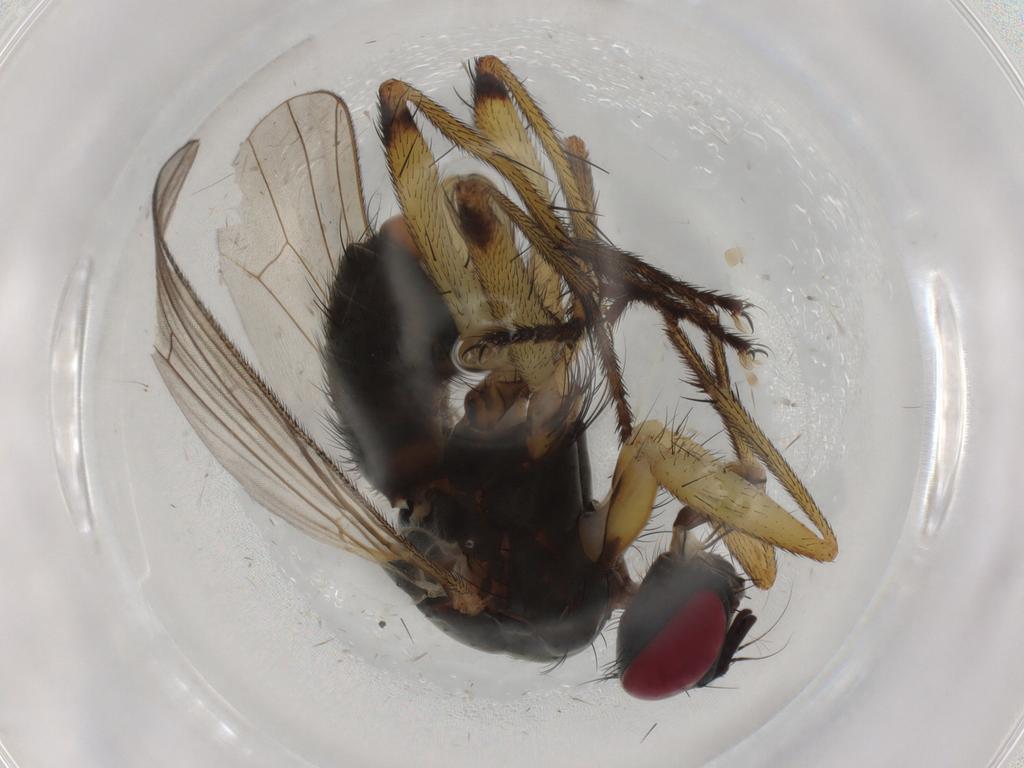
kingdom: Animalia
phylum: Arthropoda
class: Insecta
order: Diptera
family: Muscidae
